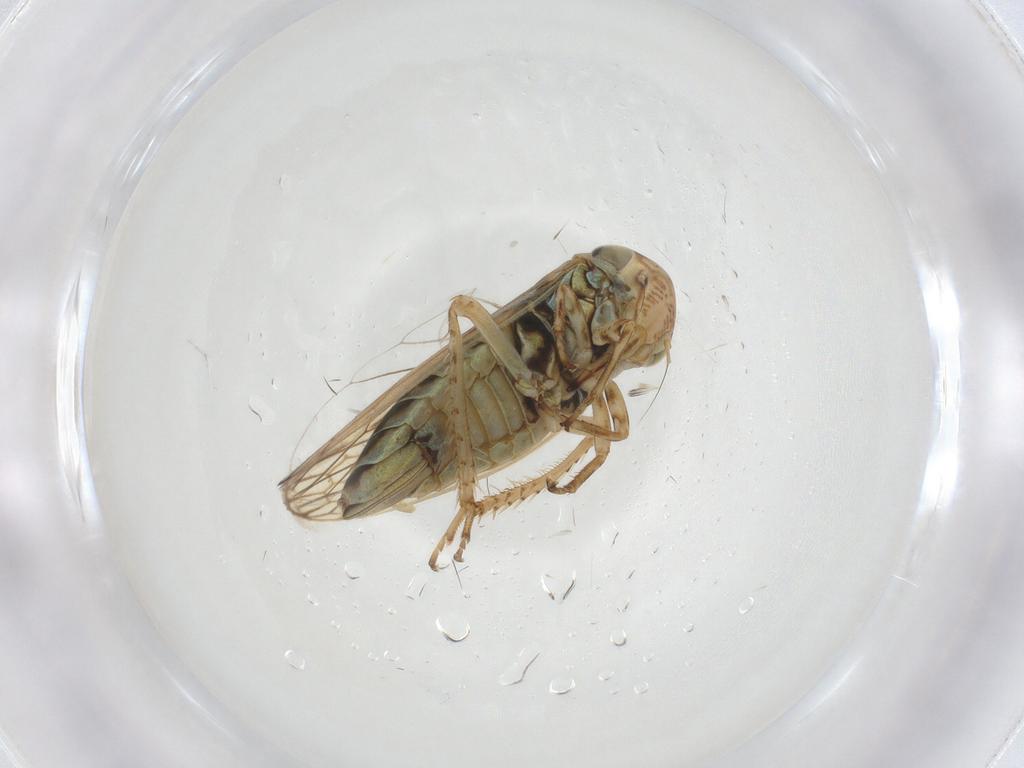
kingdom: Animalia
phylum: Arthropoda
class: Insecta
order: Hemiptera
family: Cicadellidae
